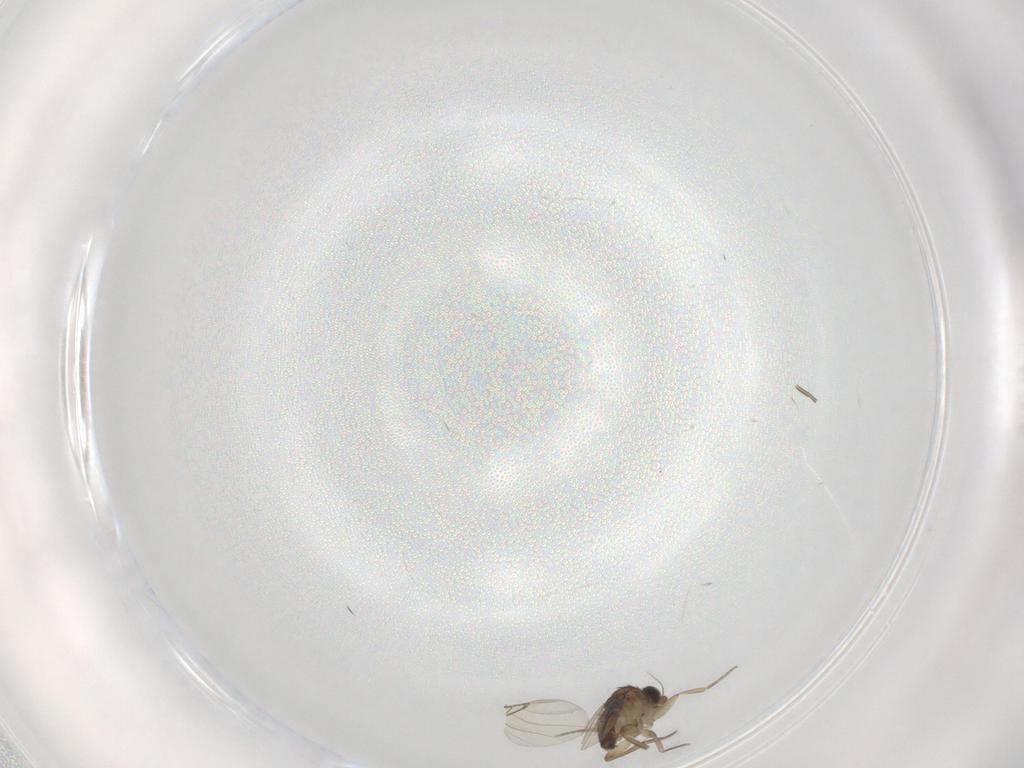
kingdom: Animalia
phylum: Arthropoda
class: Insecta
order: Diptera
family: Phoridae
